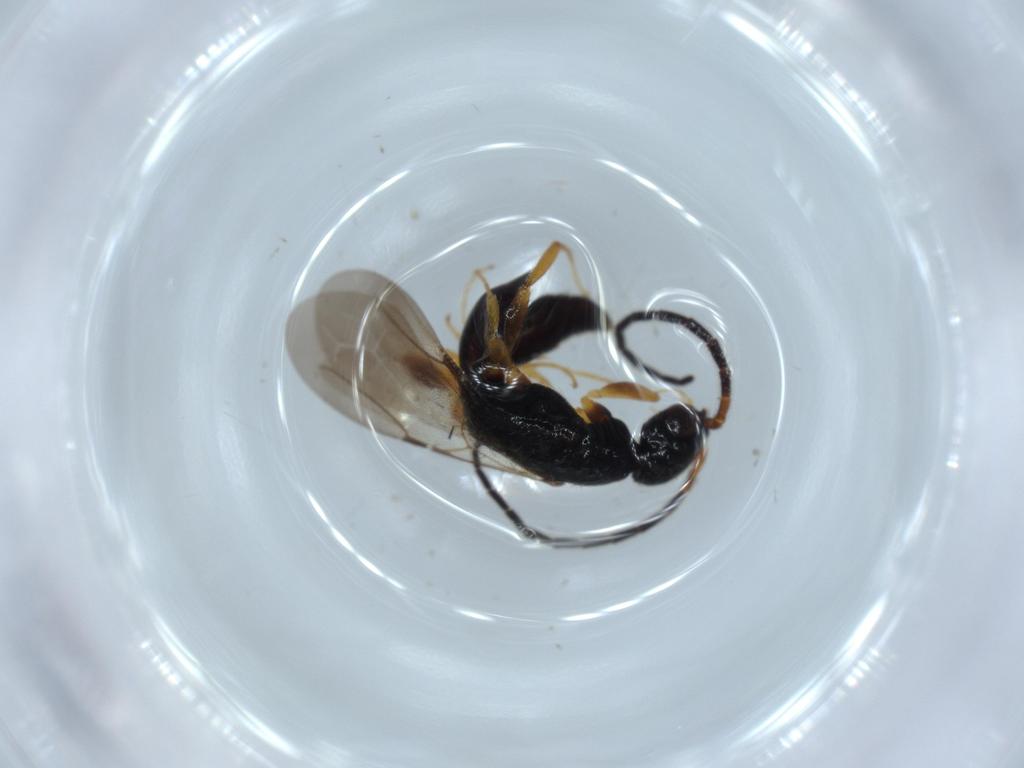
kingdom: Animalia
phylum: Arthropoda
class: Insecta
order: Hymenoptera
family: Bethylidae
